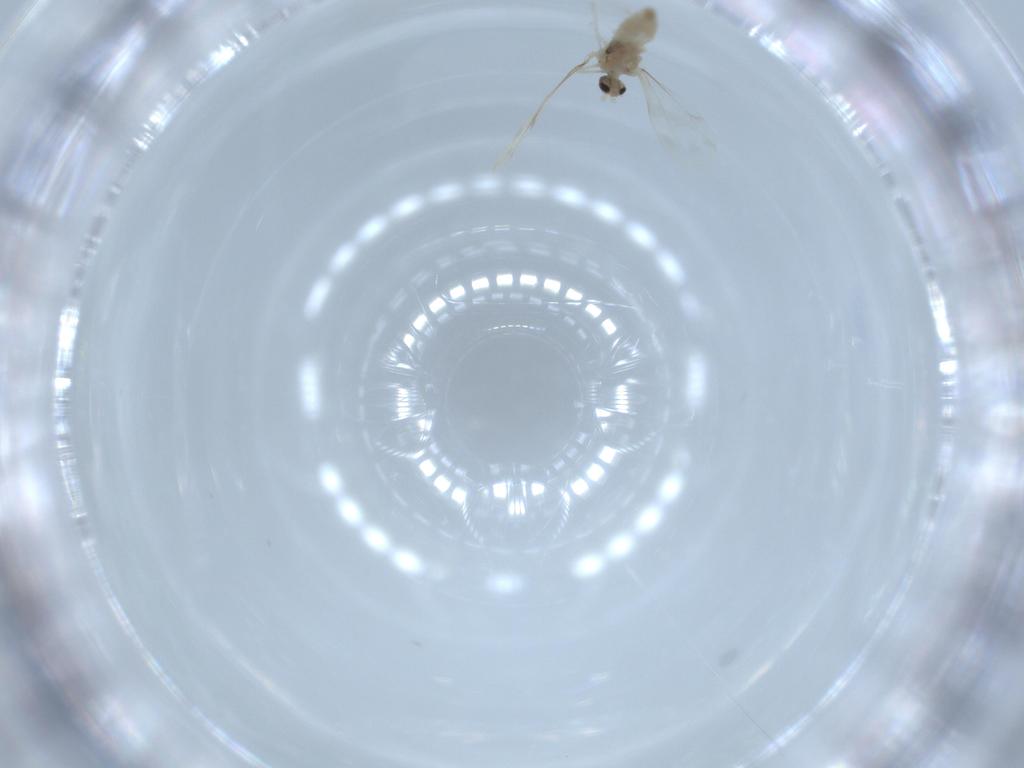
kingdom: Animalia
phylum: Arthropoda
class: Insecta
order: Diptera
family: Cecidomyiidae
